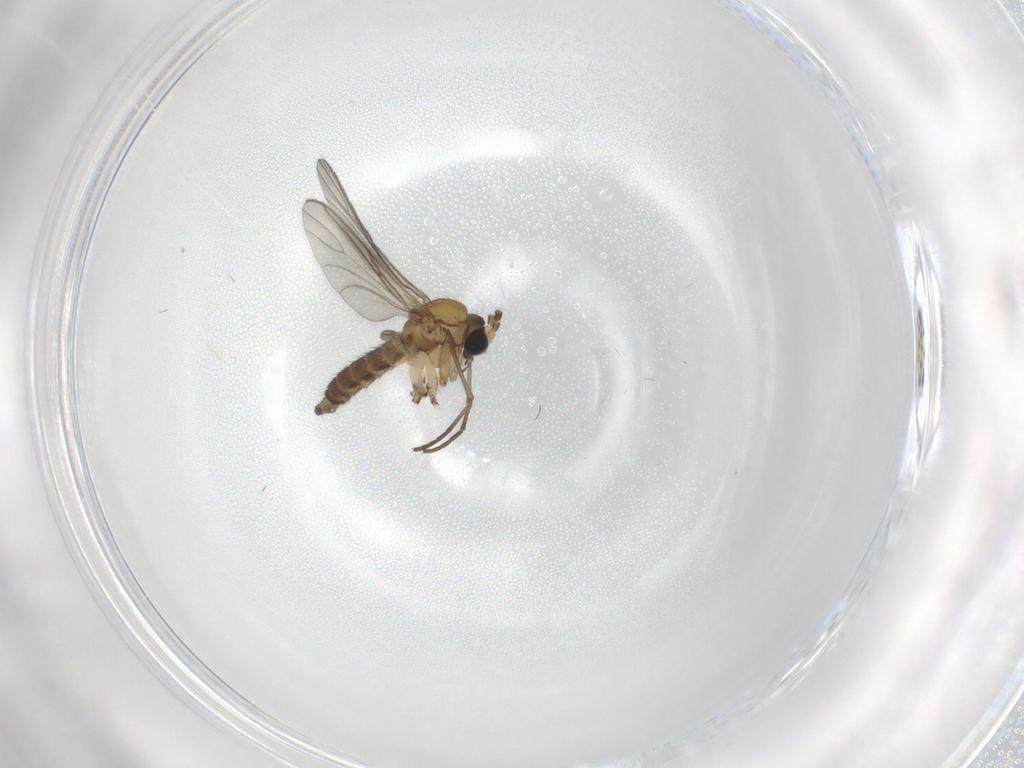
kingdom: Animalia
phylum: Arthropoda
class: Insecta
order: Diptera
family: Sciaridae
